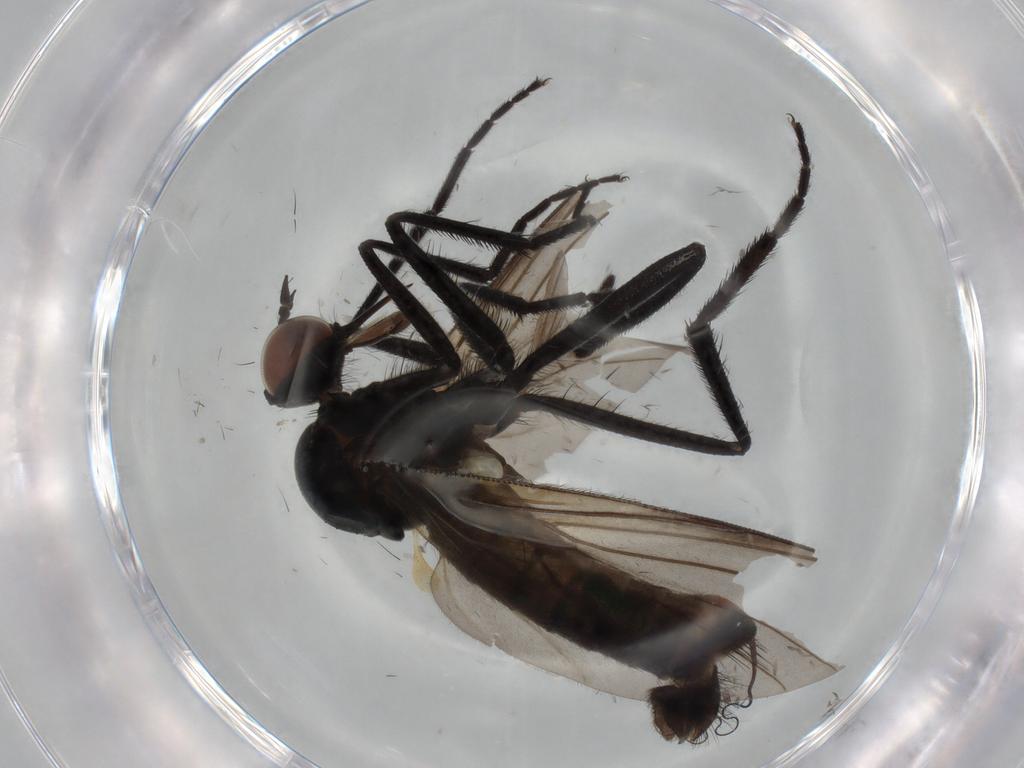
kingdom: Animalia
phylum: Arthropoda
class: Insecta
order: Diptera
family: Empididae
